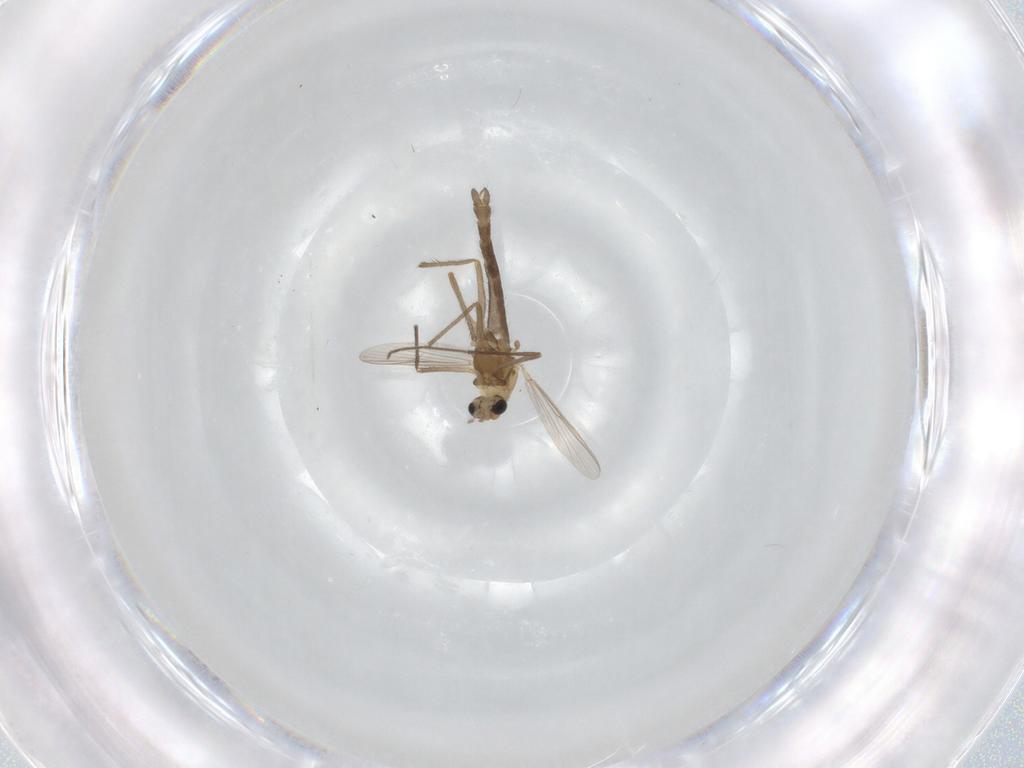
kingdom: Animalia
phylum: Arthropoda
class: Insecta
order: Diptera
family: Chironomidae
